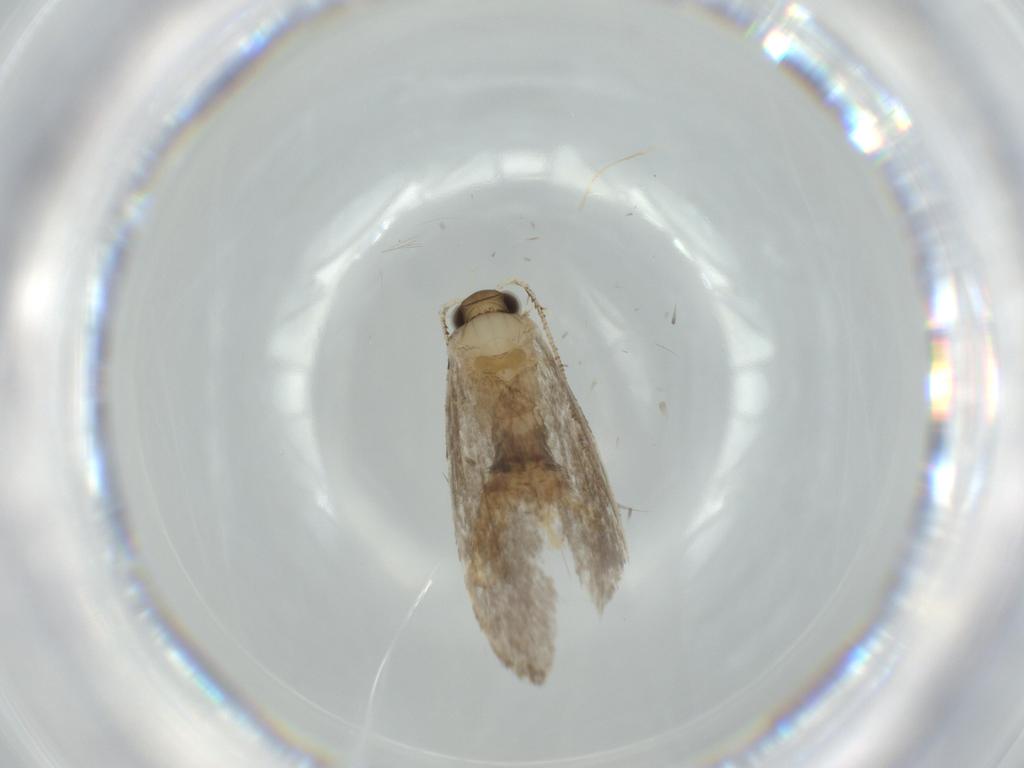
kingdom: Animalia
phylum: Arthropoda
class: Insecta
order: Lepidoptera
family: Tineidae
